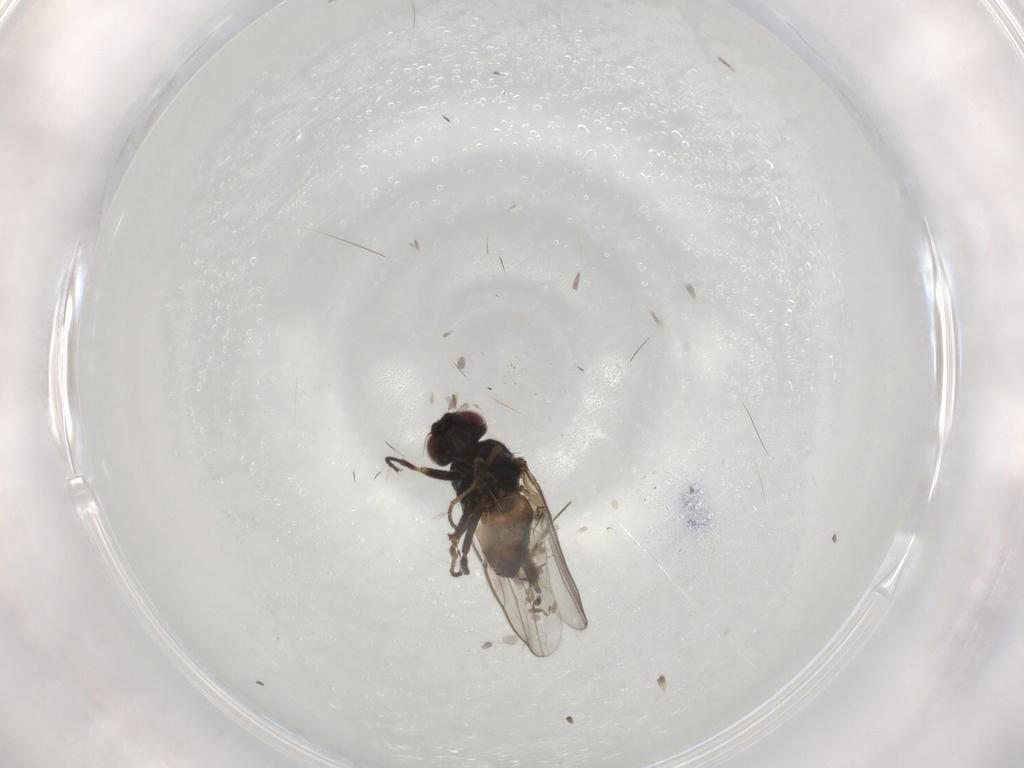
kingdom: Animalia
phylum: Arthropoda
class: Insecta
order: Diptera
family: Chloropidae
